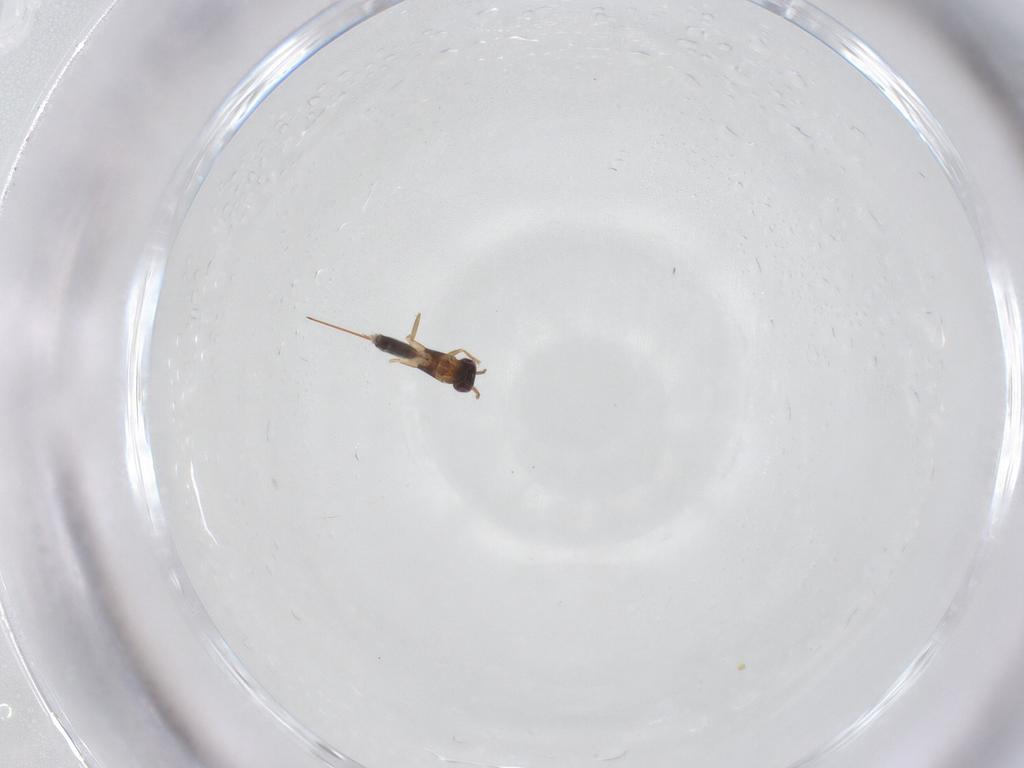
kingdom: Animalia
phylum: Arthropoda
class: Insecta
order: Hymenoptera
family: Mymaridae
